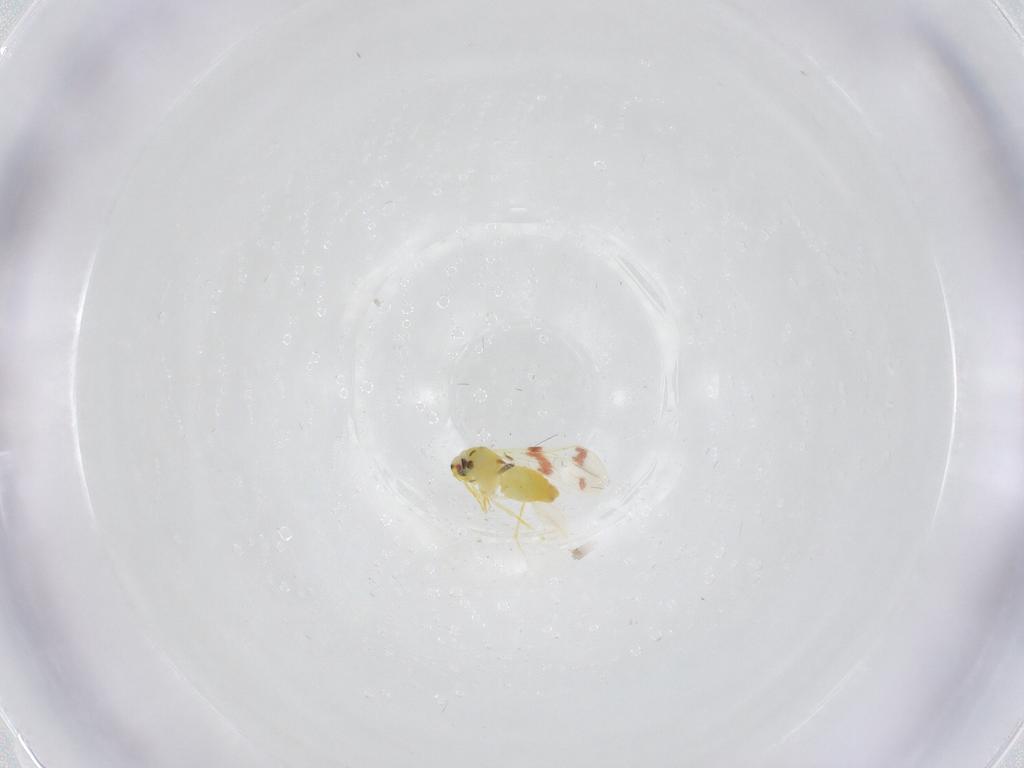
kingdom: Animalia
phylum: Arthropoda
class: Insecta
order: Hemiptera
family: Aleyrodidae
